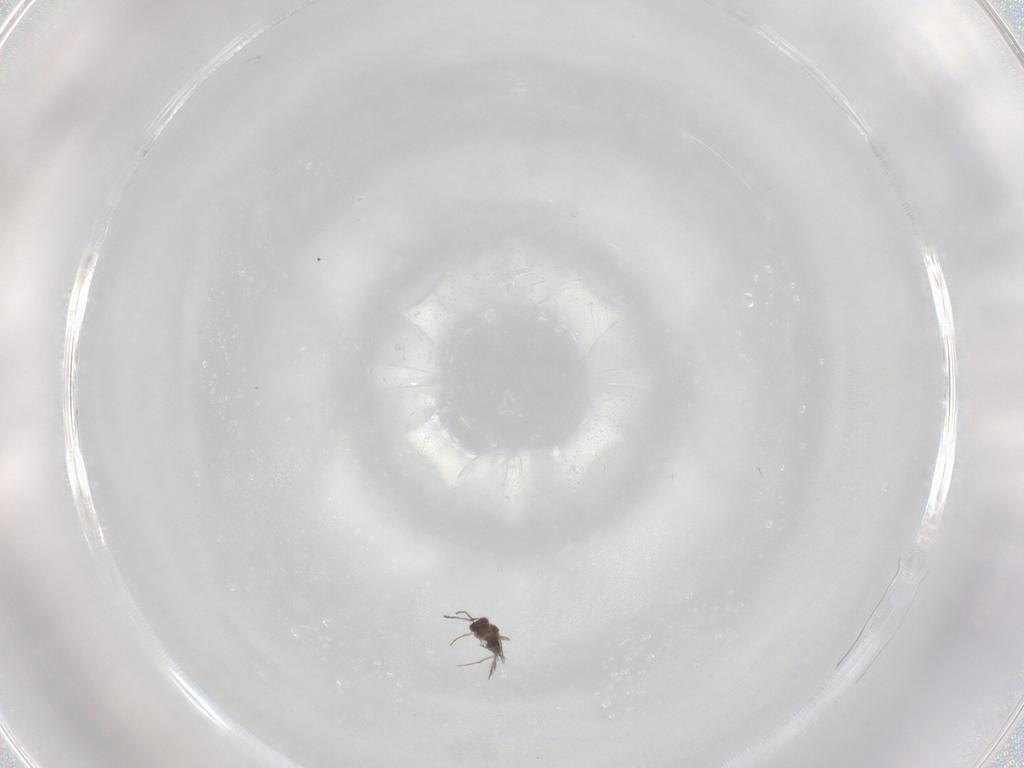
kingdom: Animalia
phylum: Arthropoda
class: Insecta
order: Hymenoptera
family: Mymaridae
